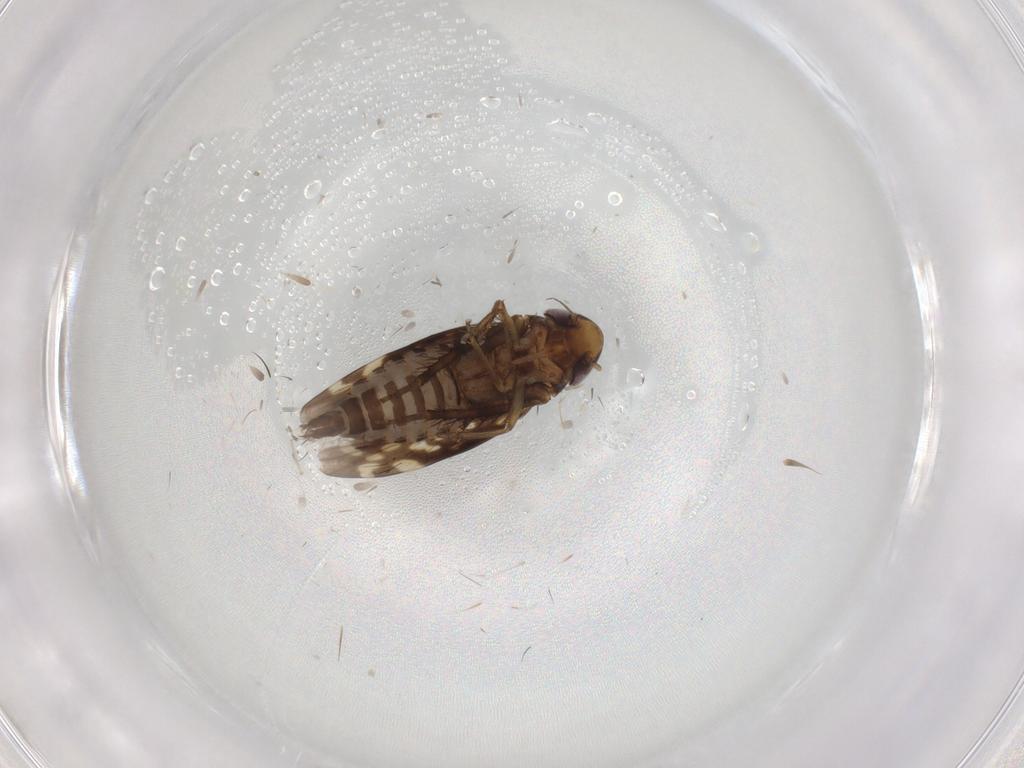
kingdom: Animalia
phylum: Arthropoda
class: Insecta
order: Hemiptera
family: Cicadellidae
